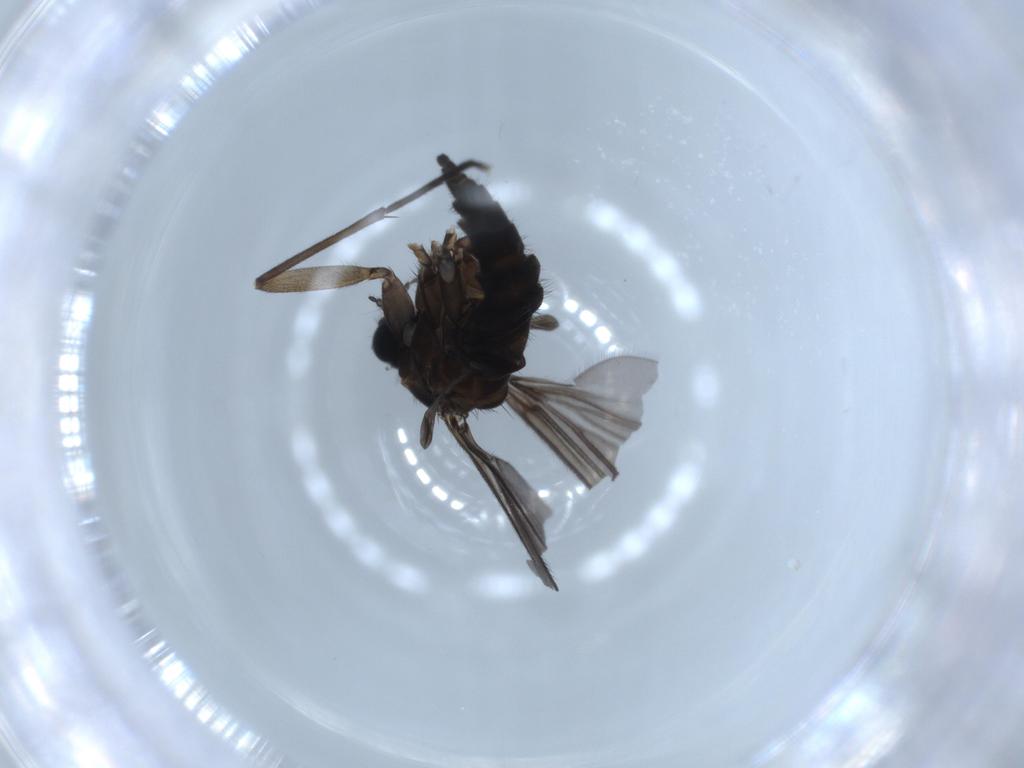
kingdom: Animalia
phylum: Arthropoda
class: Insecta
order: Diptera
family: Sciaridae
